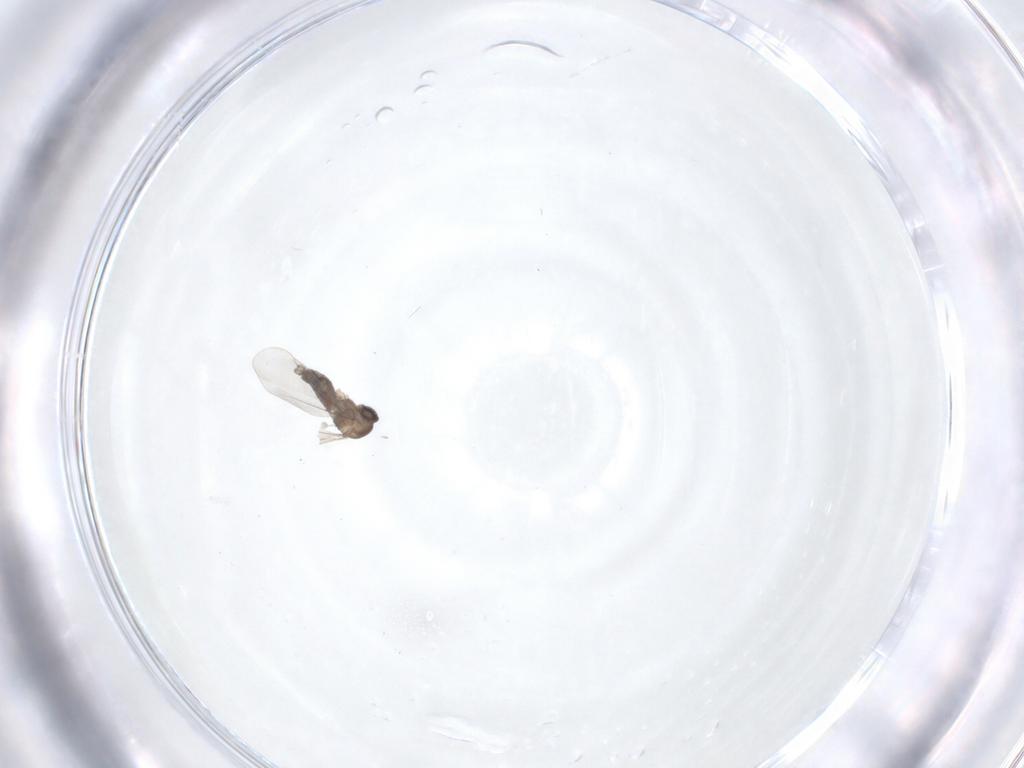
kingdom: Animalia
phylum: Arthropoda
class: Insecta
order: Diptera
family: Cecidomyiidae
